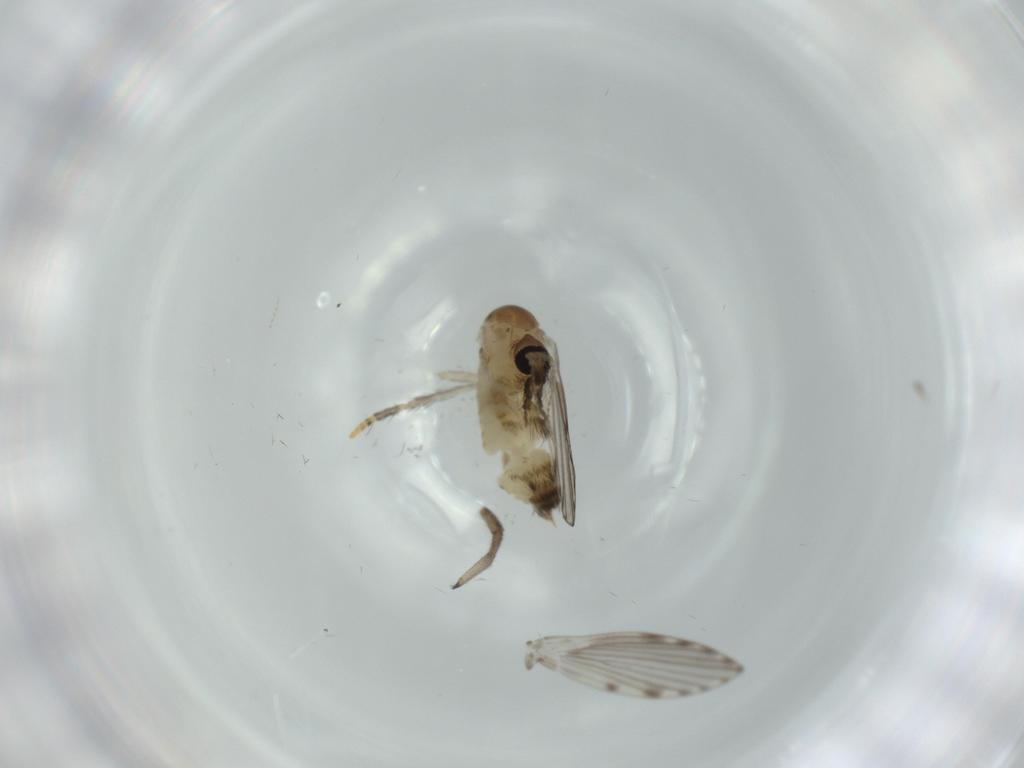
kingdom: Animalia
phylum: Arthropoda
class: Insecta
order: Diptera
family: Psychodidae
